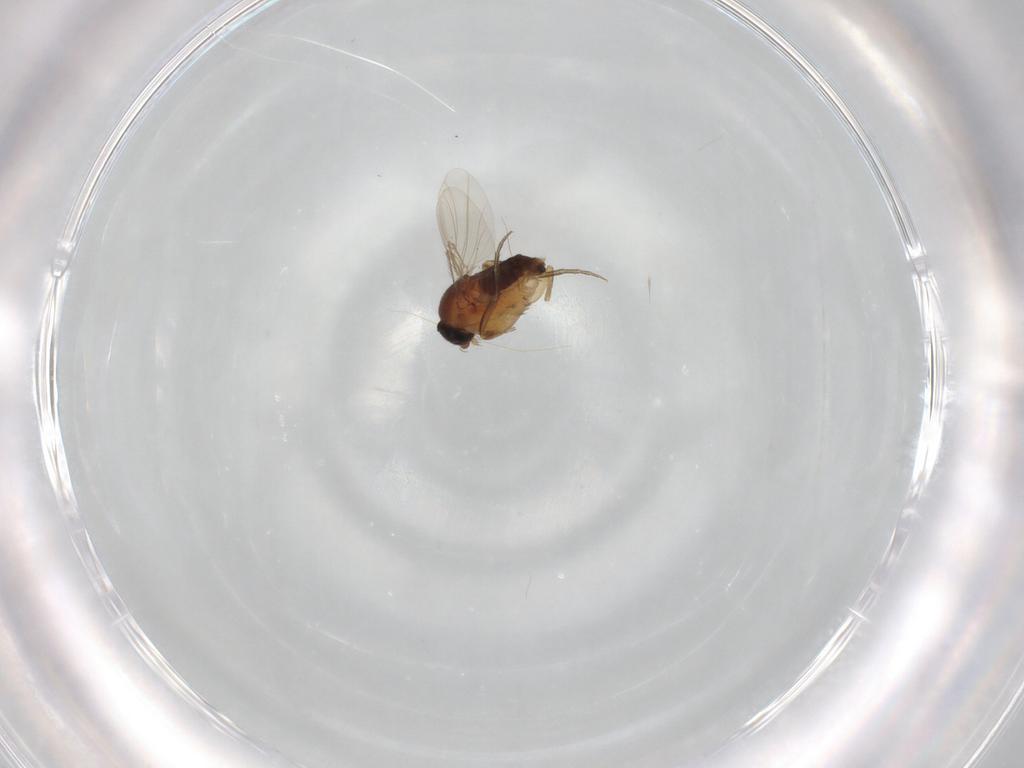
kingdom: Animalia
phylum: Arthropoda
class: Insecta
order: Diptera
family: Phoridae
